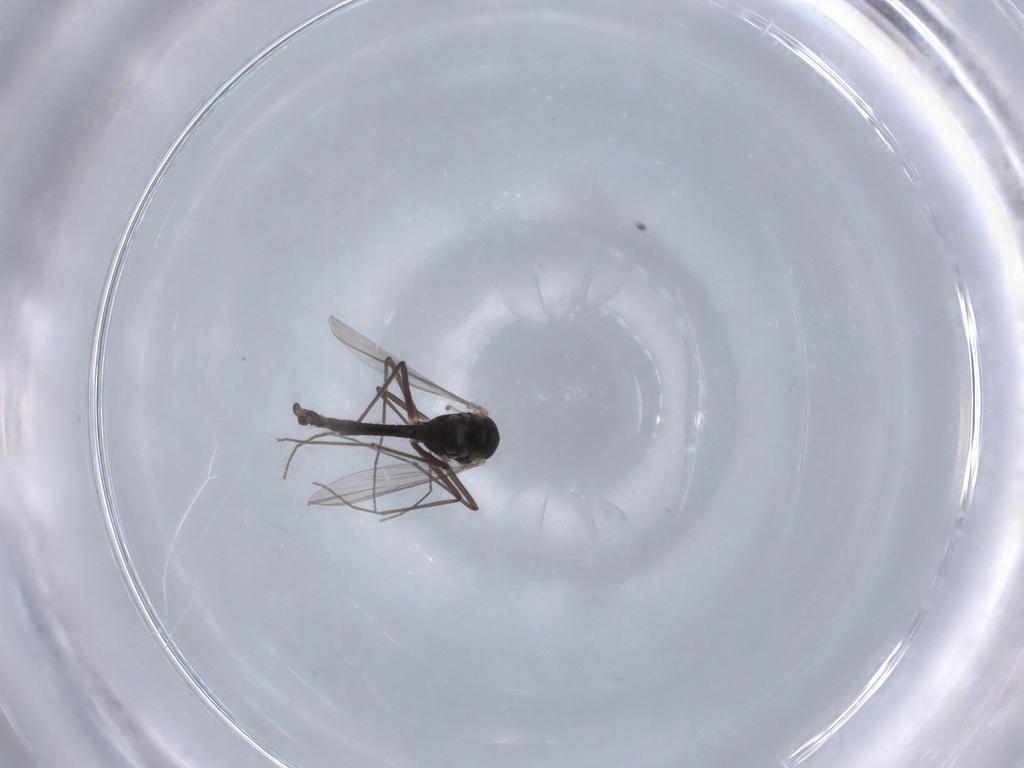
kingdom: Animalia
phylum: Arthropoda
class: Insecta
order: Diptera
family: Chironomidae
